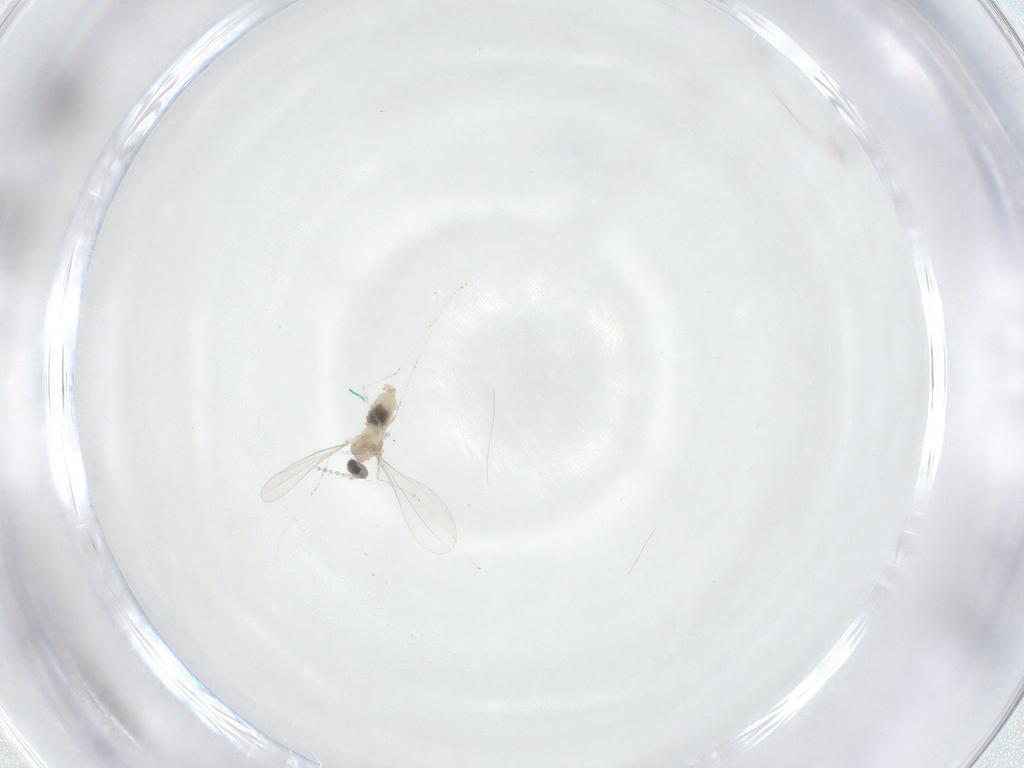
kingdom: Animalia
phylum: Arthropoda
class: Insecta
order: Diptera
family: Cecidomyiidae
